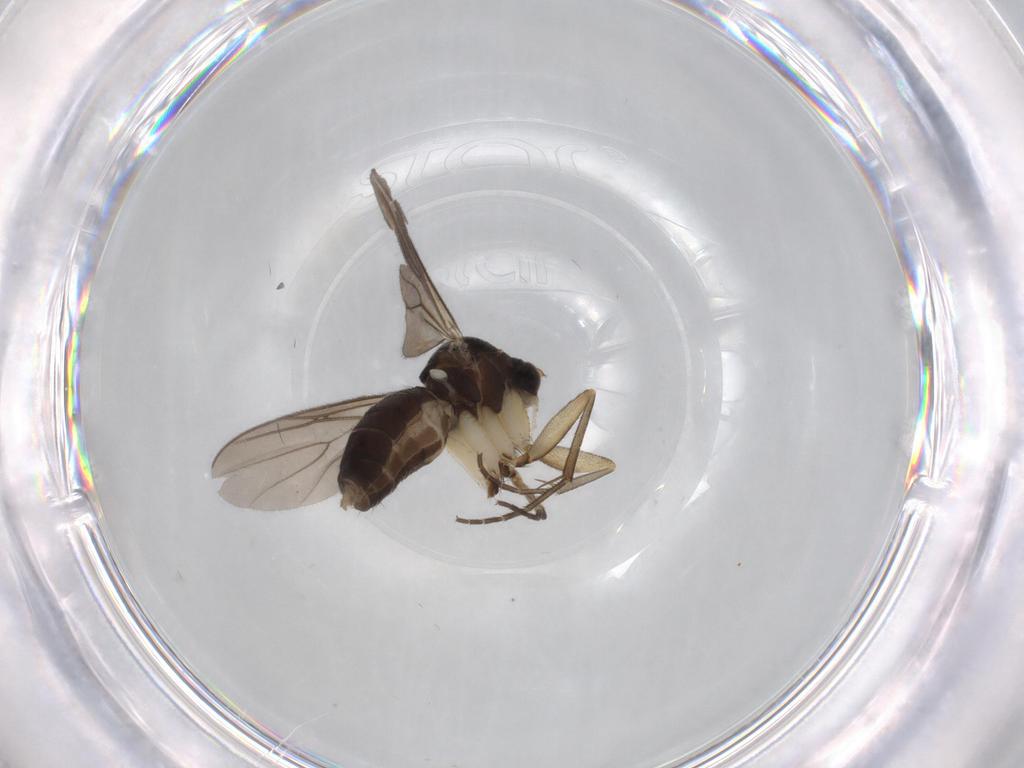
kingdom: Animalia
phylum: Arthropoda
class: Insecta
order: Diptera
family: Mycetophilidae
